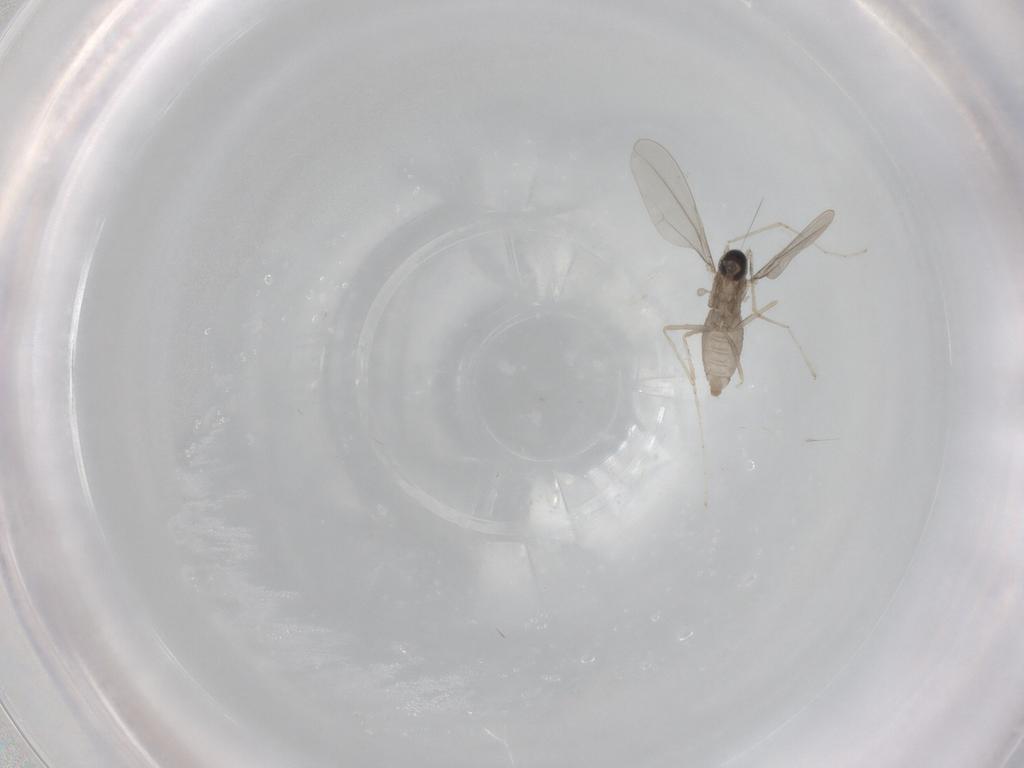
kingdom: Animalia
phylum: Arthropoda
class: Insecta
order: Diptera
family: Cecidomyiidae
